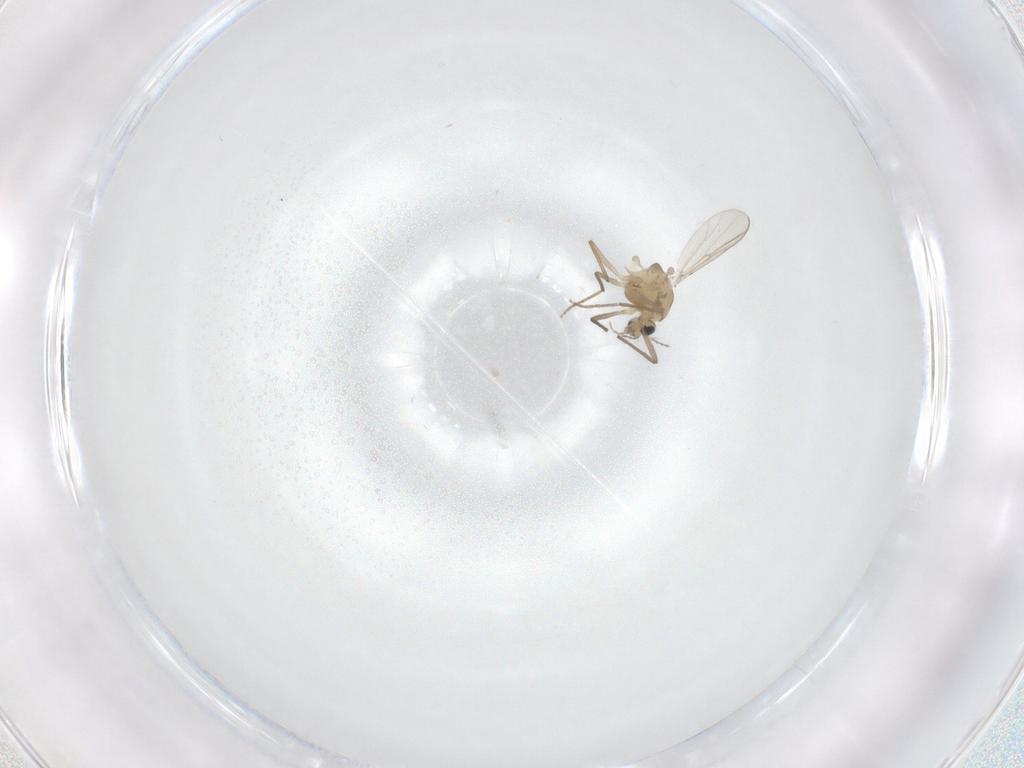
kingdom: Animalia
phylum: Arthropoda
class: Insecta
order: Diptera
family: Chironomidae
